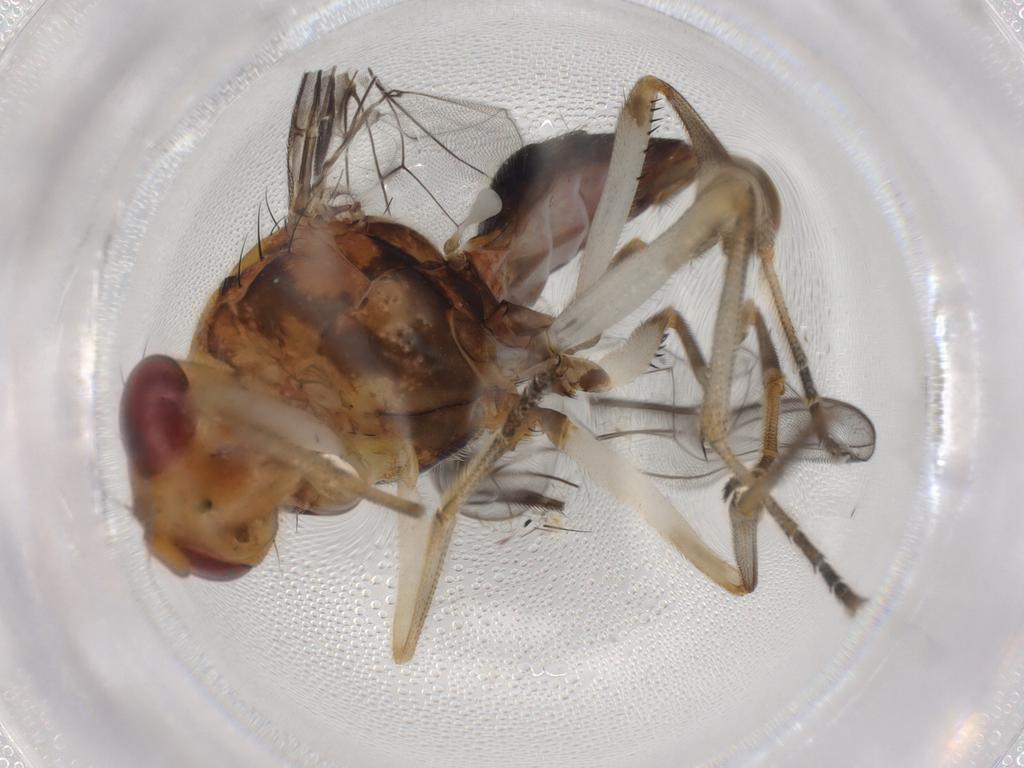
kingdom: Animalia
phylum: Arthropoda
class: Insecta
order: Diptera
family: Richardiidae
